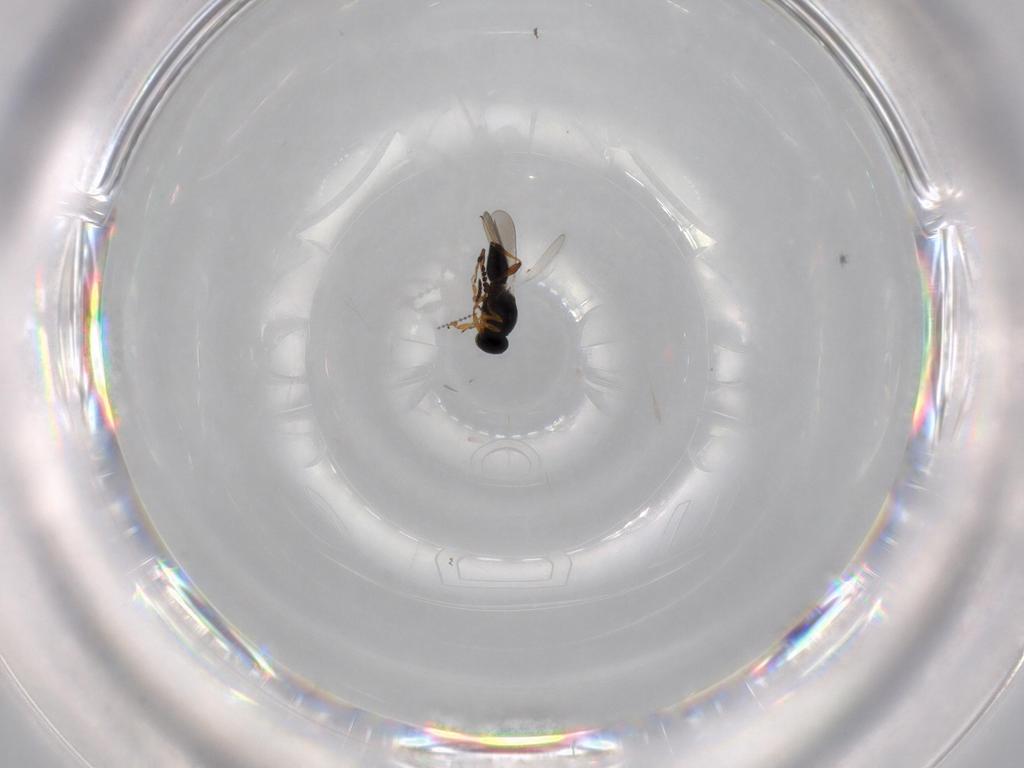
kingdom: Animalia
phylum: Arthropoda
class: Insecta
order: Hymenoptera
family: Platygastridae
